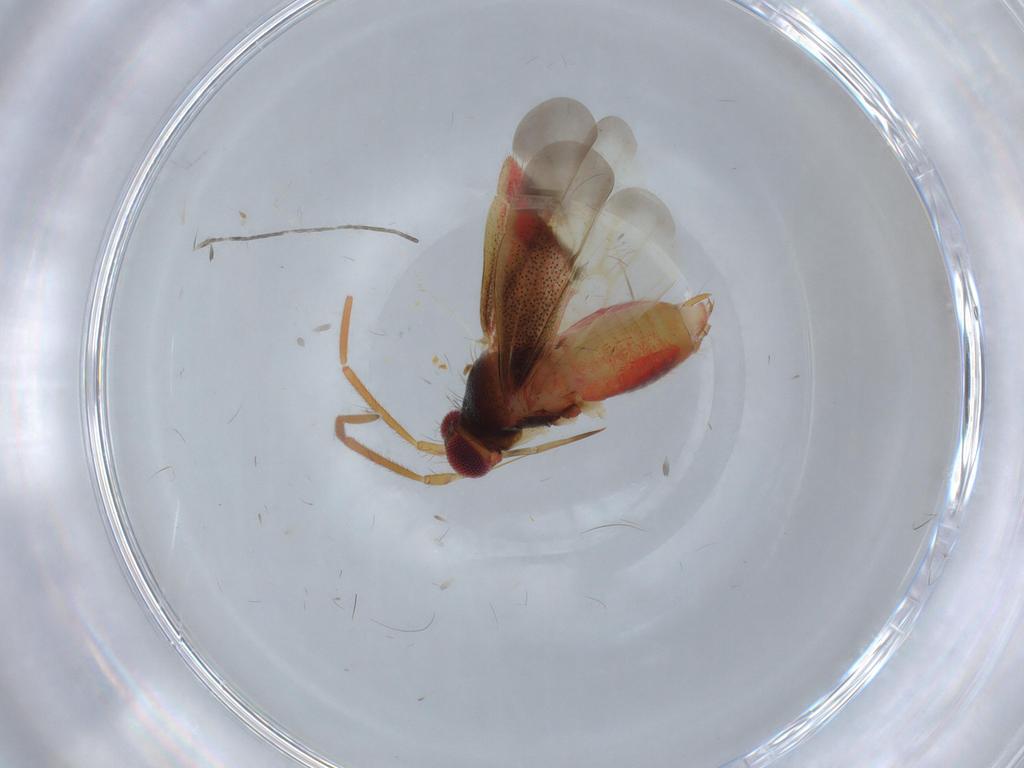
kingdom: Animalia
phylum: Arthropoda
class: Insecta
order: Hemiptera
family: Miridae
